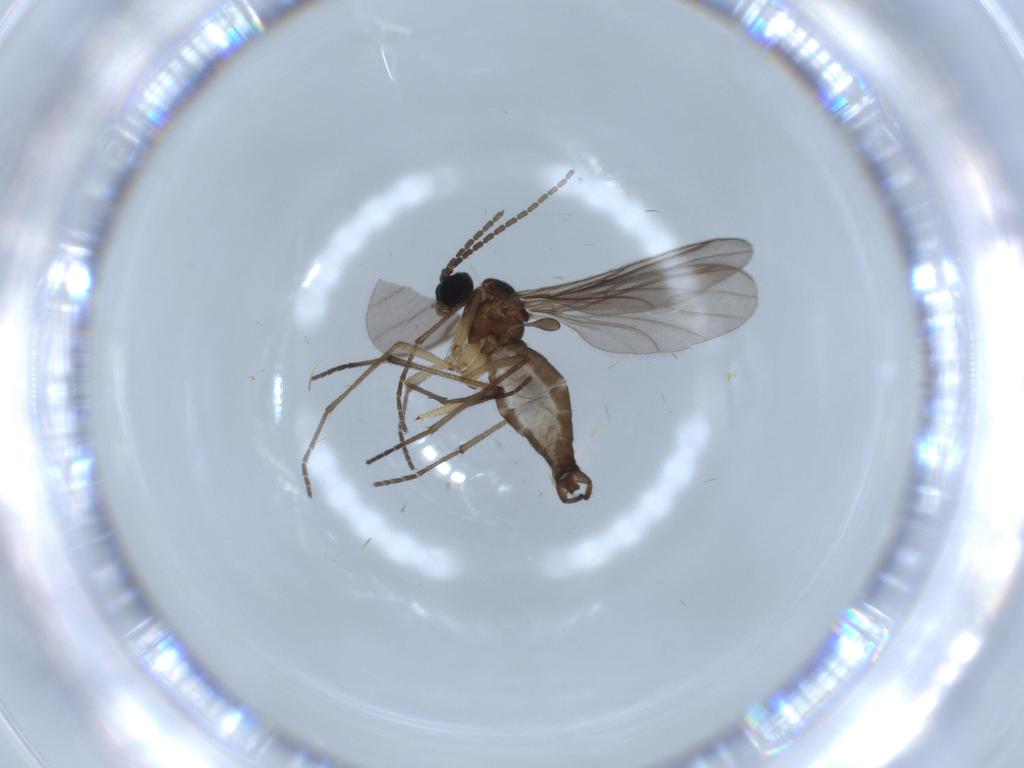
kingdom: Animalia
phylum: Arthropoda
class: Insecta
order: Diptera
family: Sciaridae
